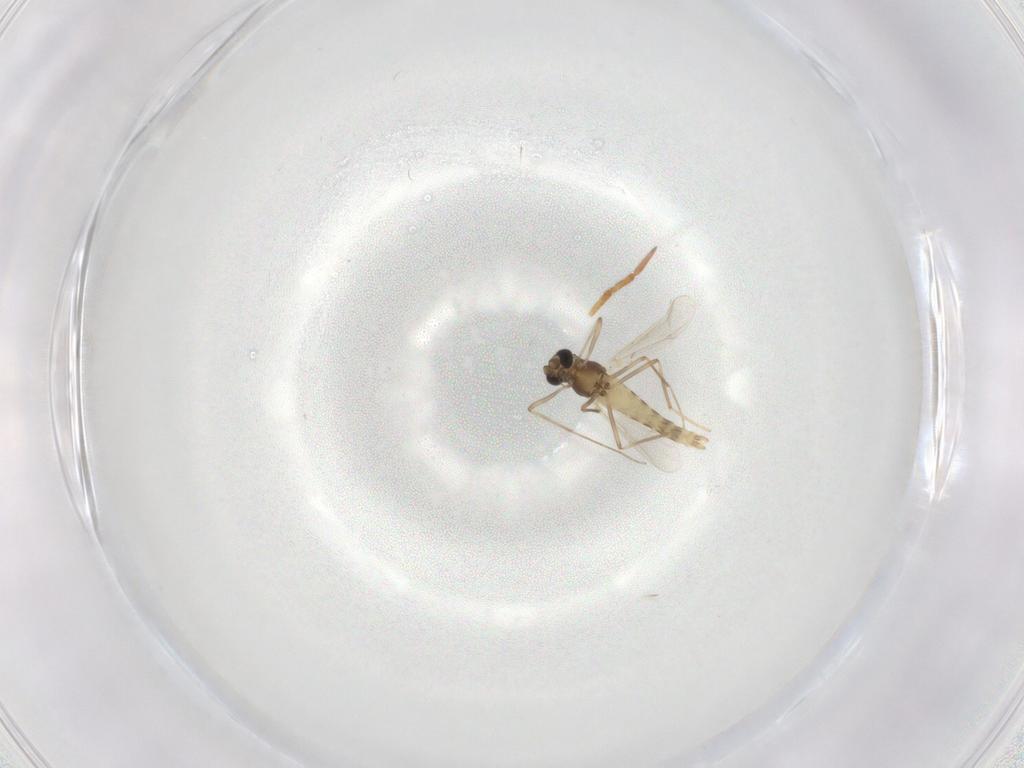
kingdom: Animalia
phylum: Arthropoda
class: Insecta
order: Diptera
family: Chironomidae
